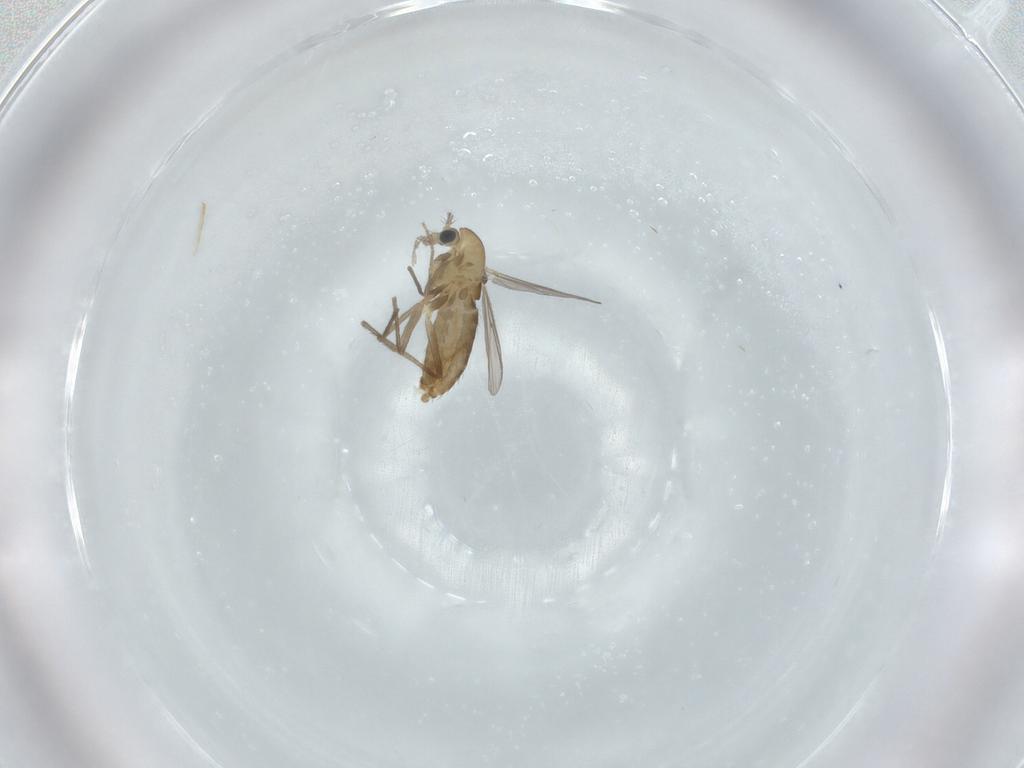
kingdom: Animalia
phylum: Arthropoda
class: Insecta
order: Diptera
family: Chironomidae
